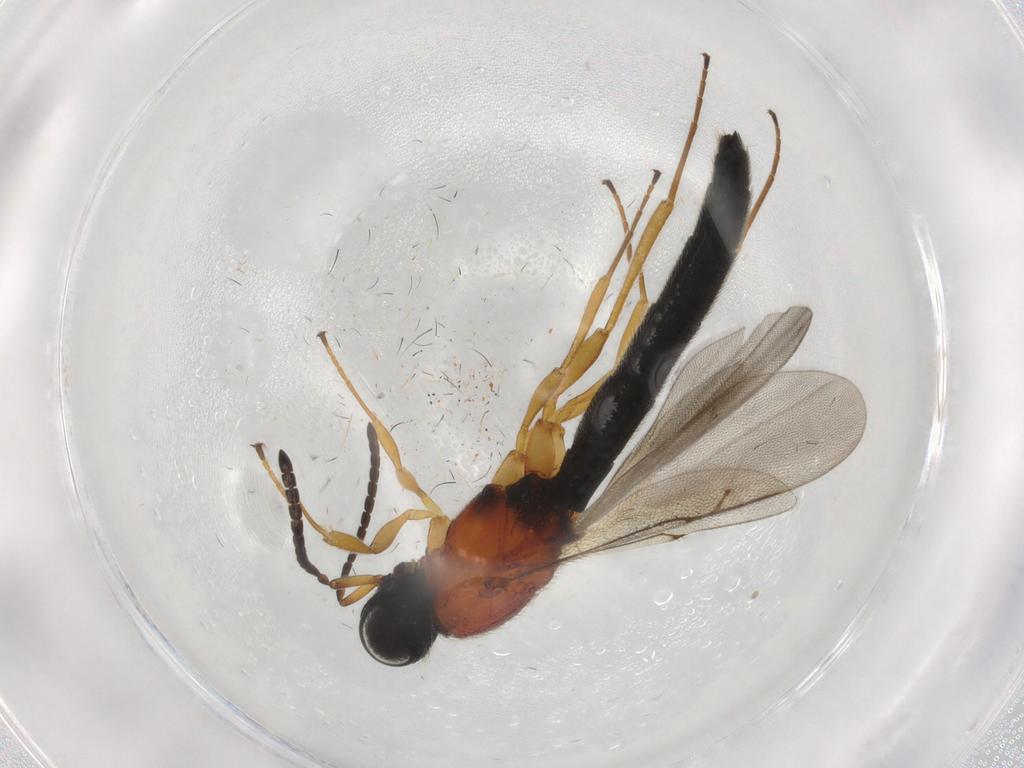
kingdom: Animalia
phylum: Arthropoda
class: Insecta
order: Hymenoptera
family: Scelionidae
